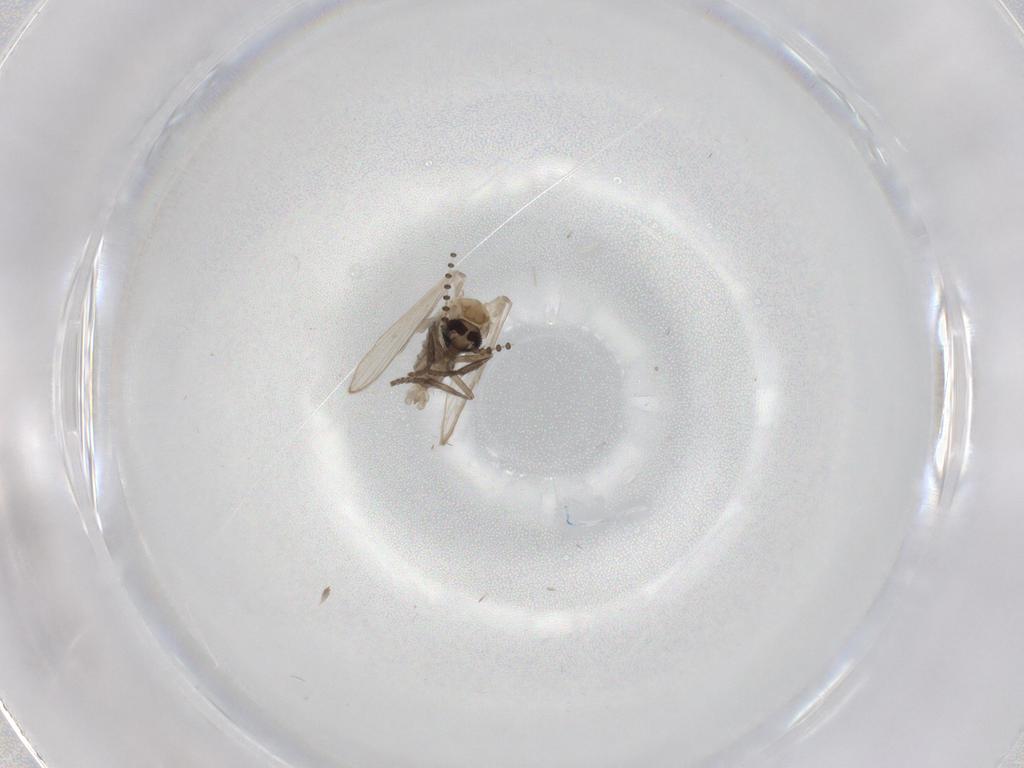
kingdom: Animalia
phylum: Arthropoda
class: Insecta
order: Diptera
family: Psychodidae
